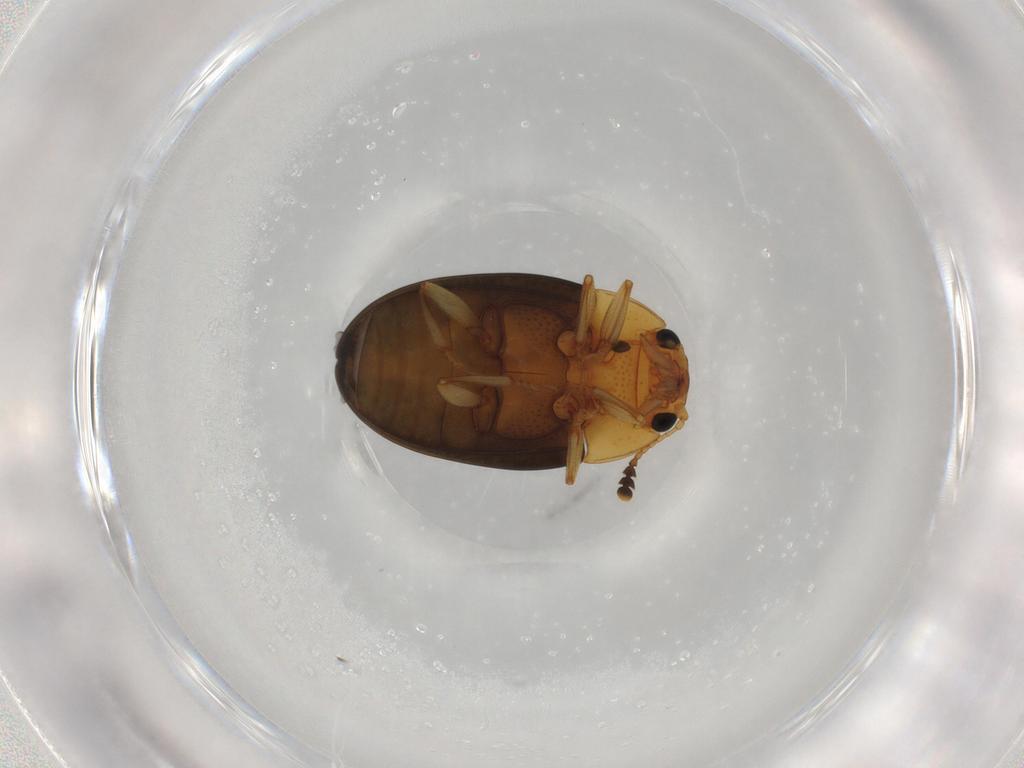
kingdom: Animalia
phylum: Arthropoda
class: Insecta
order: Coleoptera
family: Erotylidae
